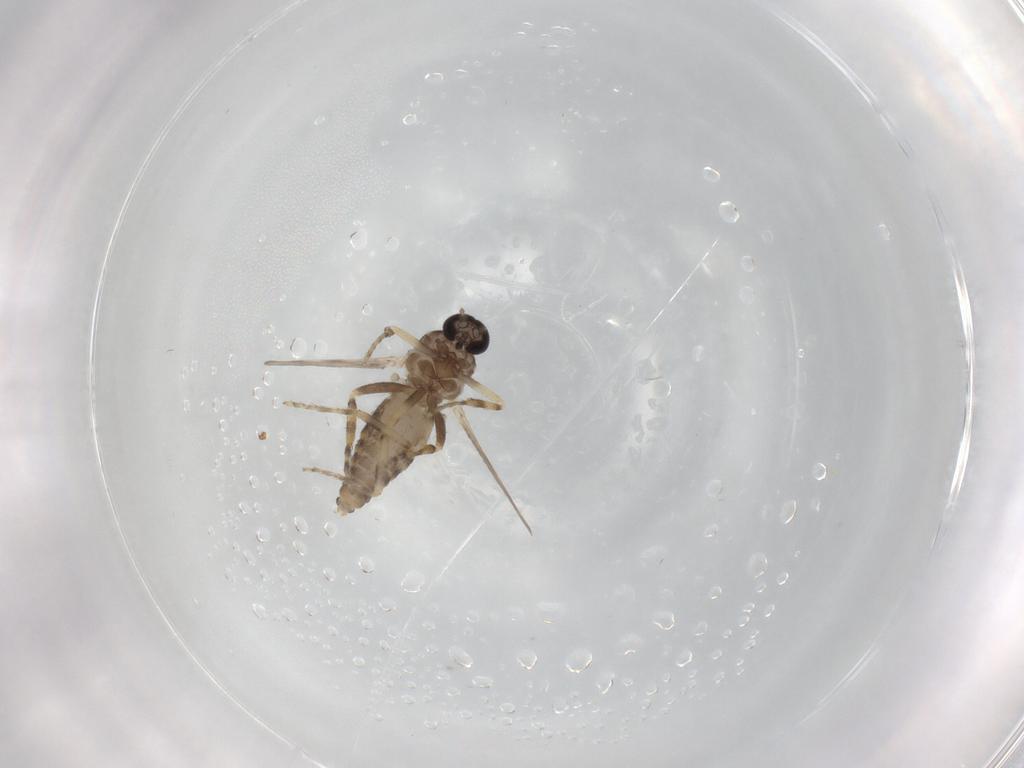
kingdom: Animalia
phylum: Arthropoda
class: Insecta
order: Diptera
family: Ceratopogonidae
